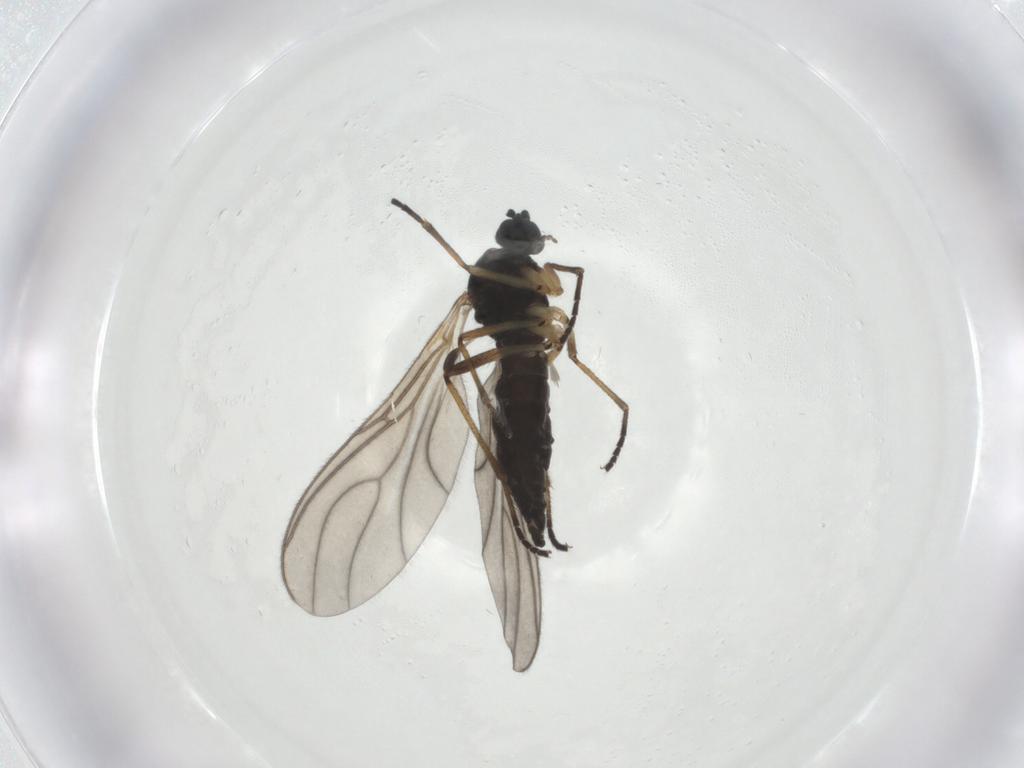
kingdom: Animalia
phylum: Arthropoda
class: Insecta
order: Diptera
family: Sciaridae
